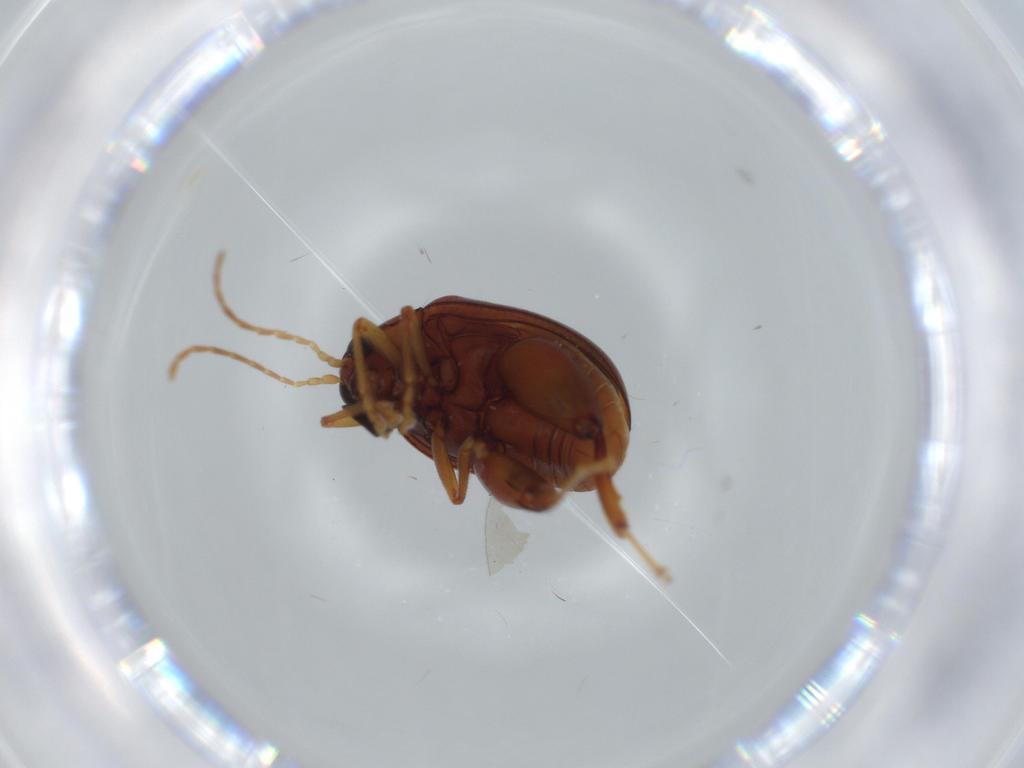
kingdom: Animalia
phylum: Arthropoda
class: Insecta
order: Coleoptera
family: Chrysomelidae
